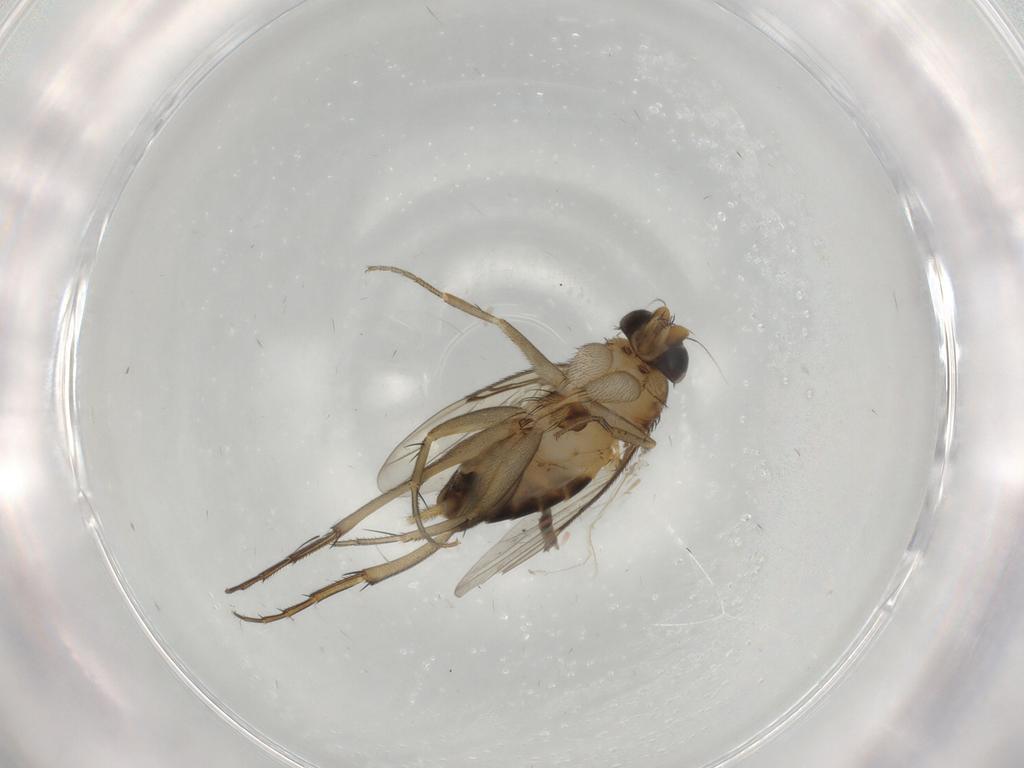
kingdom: Animalia
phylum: Arthropoda
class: Insecta
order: Diptera
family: Phoridae
